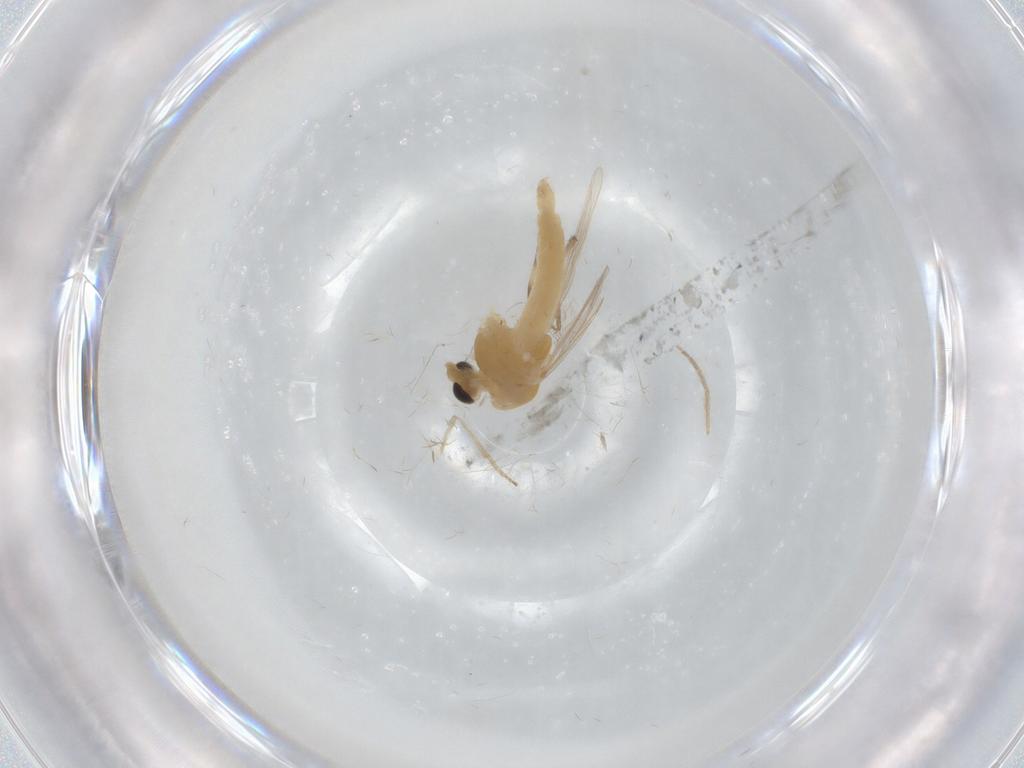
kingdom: Animalia
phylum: Arthropoda
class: Insecta
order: Diptera
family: Chironomidae
